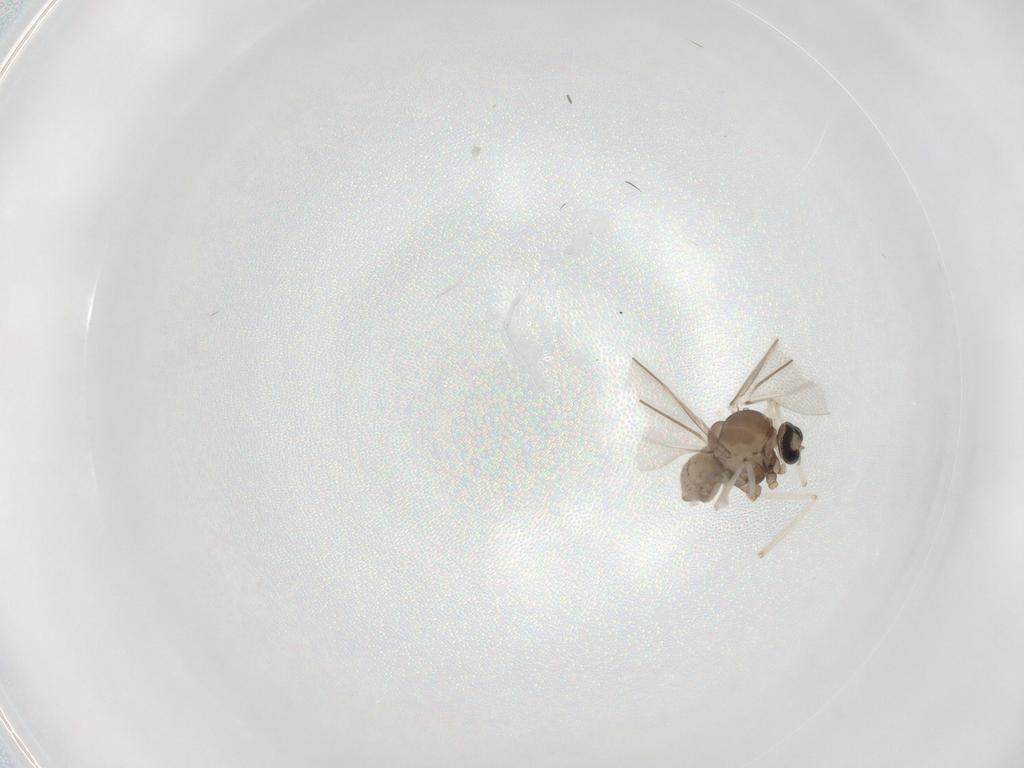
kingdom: Animalia
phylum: Arthropoda
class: Insecta
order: Diptera
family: Cecidomyiidae
